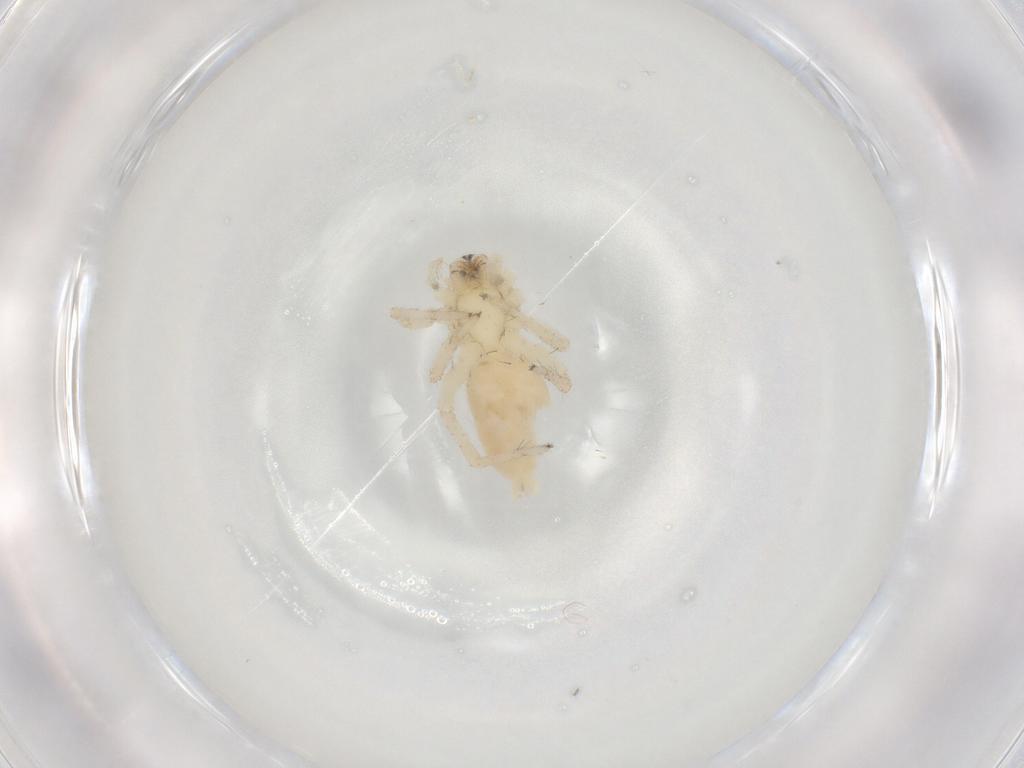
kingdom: Animalia
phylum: Arthropoda
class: Arachnida
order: Araneae
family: Anyphaenidae
